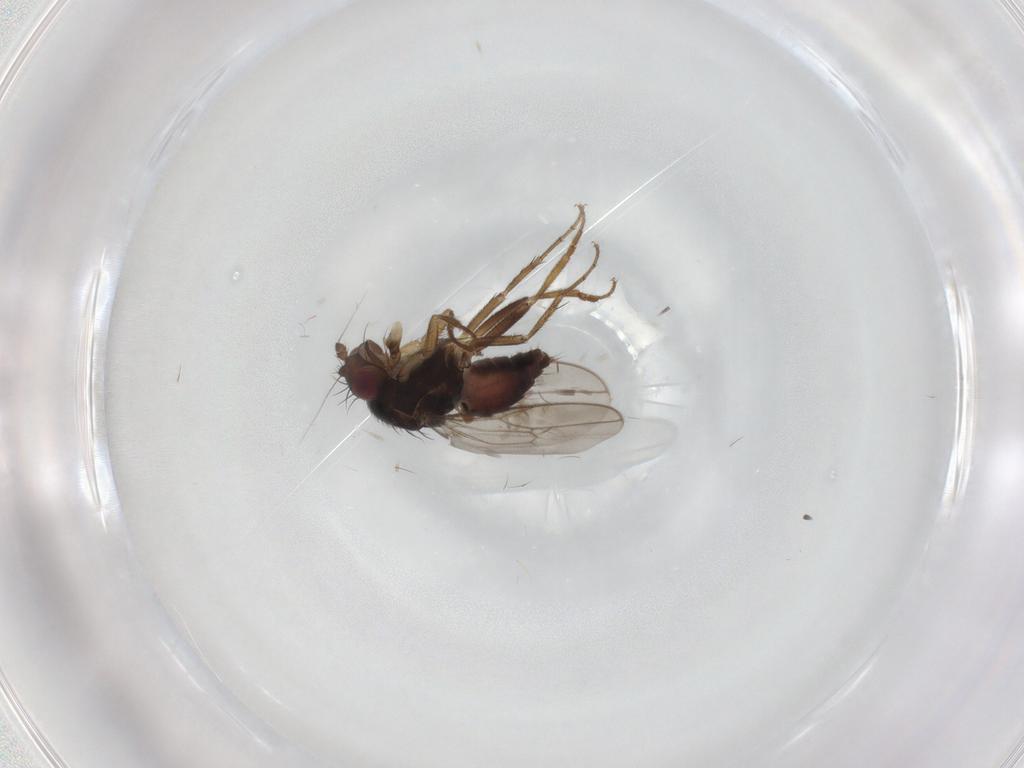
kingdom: Animalia
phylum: Arthropoda
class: Insecta
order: Diptera
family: Sphaeroceridae
